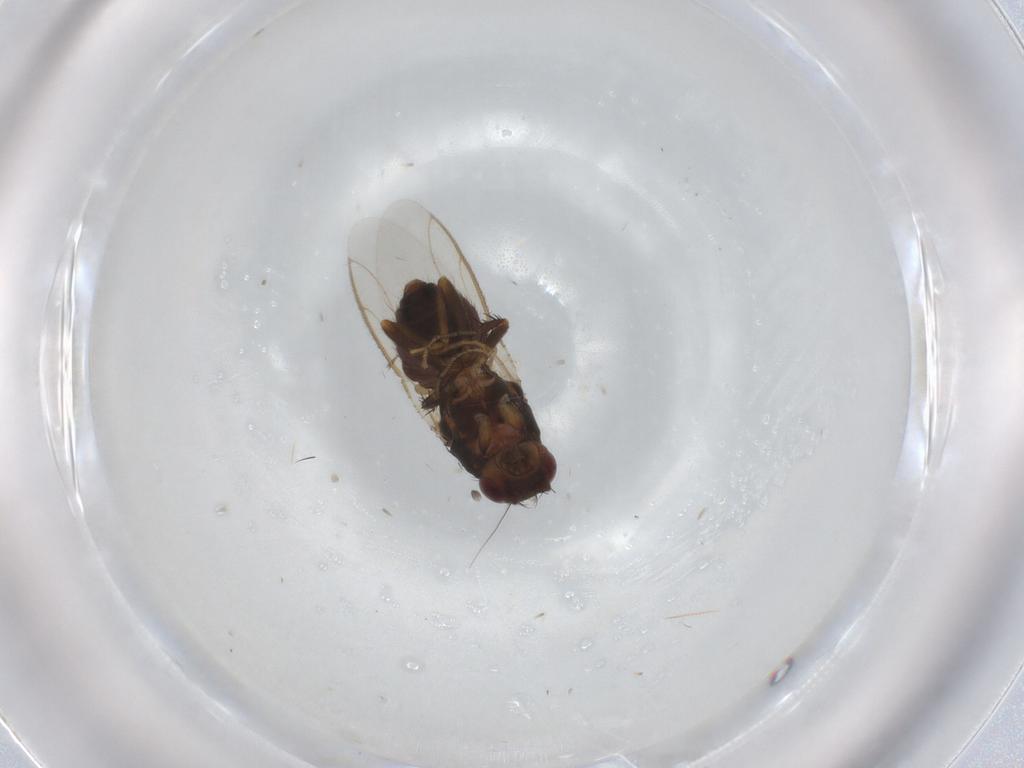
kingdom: Animalia
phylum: Arthropoda
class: Insecta
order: Diptera
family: Sphaeroceridae
